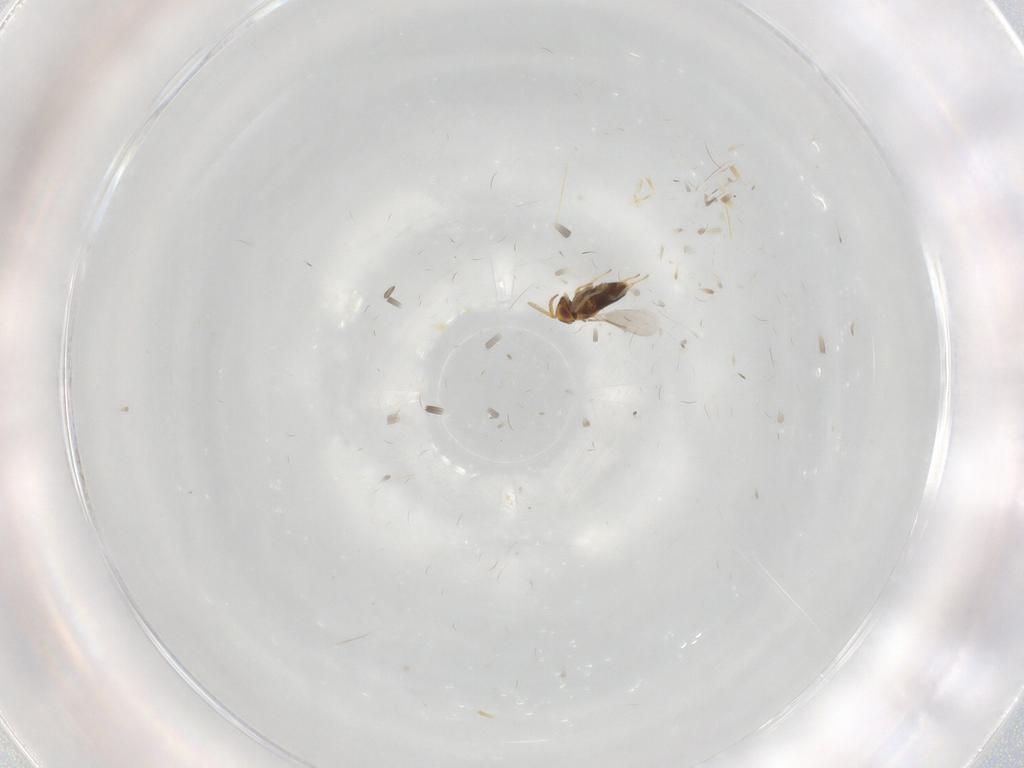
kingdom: Animalia
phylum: Arthropoda
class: Insecta
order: Hymenoptera
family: Aphelinidae
